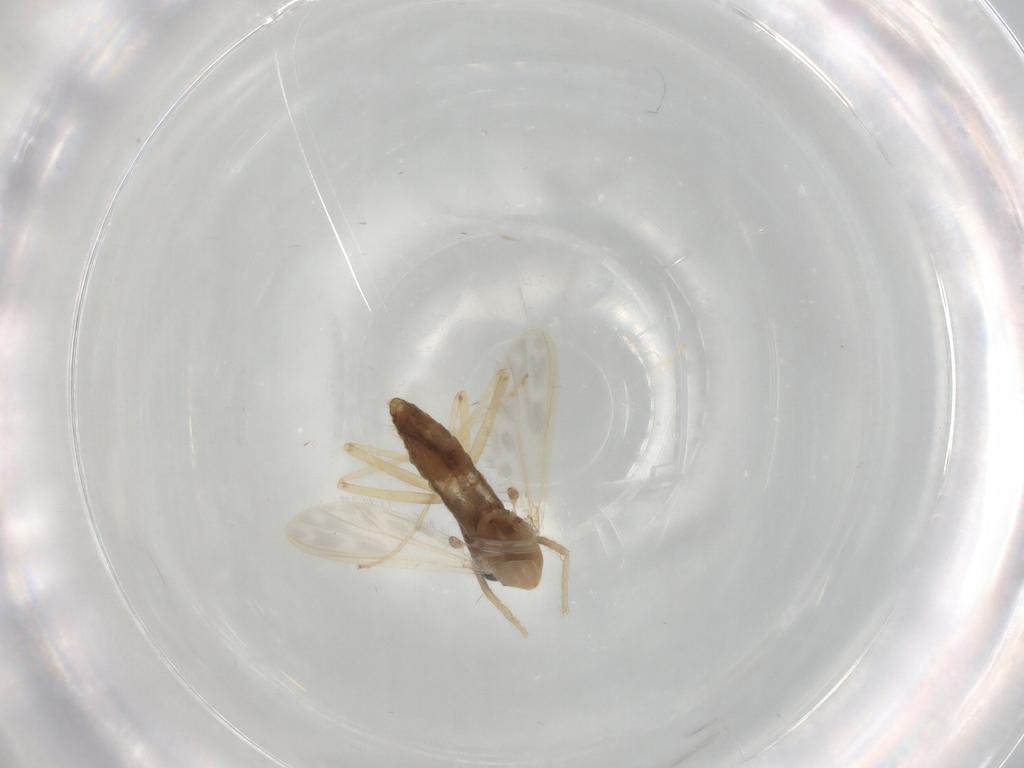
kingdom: Animalia
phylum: Arthropoda
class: Insecta
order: Diptera
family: Chironomidae
